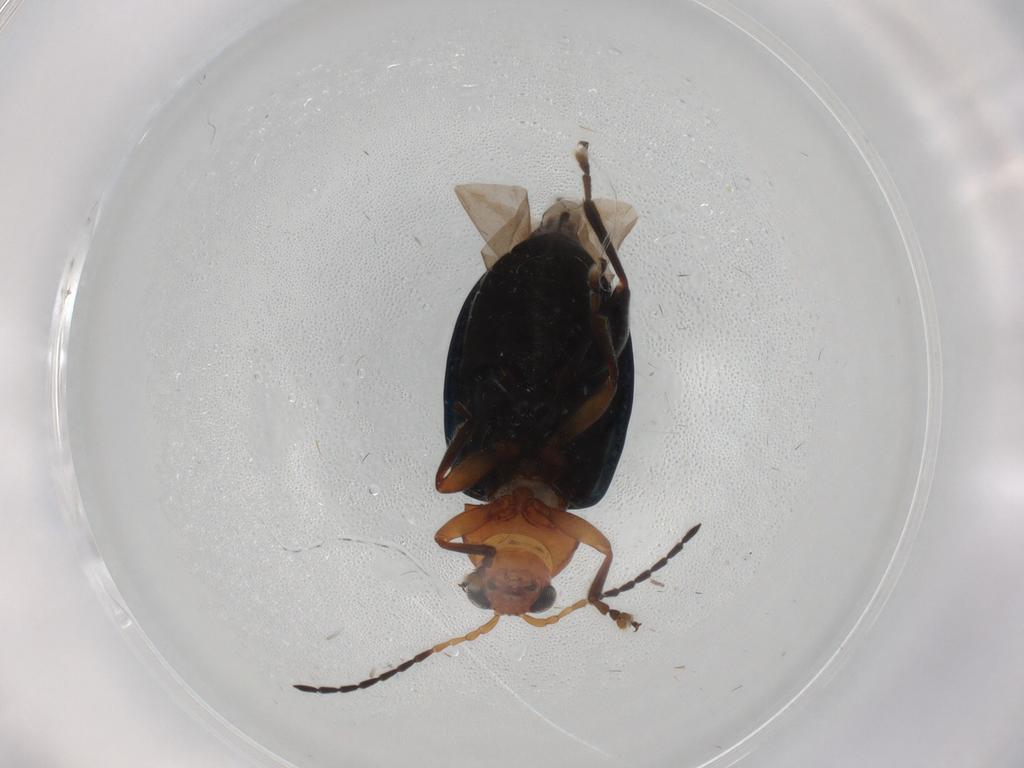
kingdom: Animalia
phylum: Arthropoda
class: Insecta
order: Coleoptera
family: Chrysomelidae
